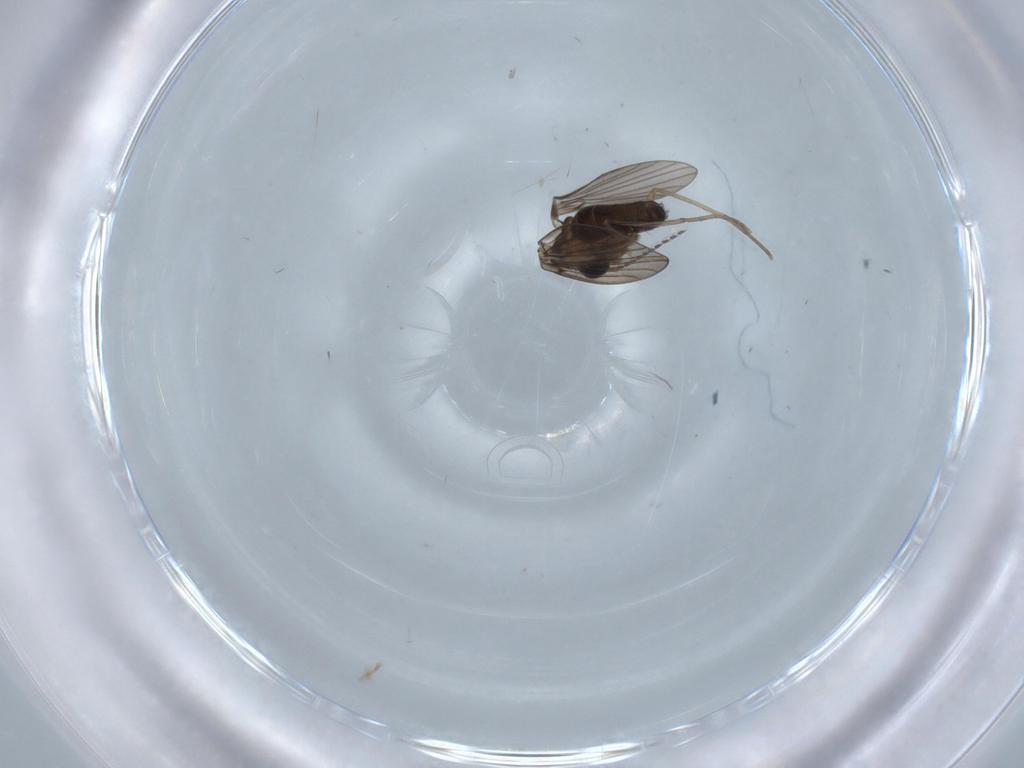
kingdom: Animalia
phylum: Arthropoda
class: Insecta
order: Diptera
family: Psychodidae
